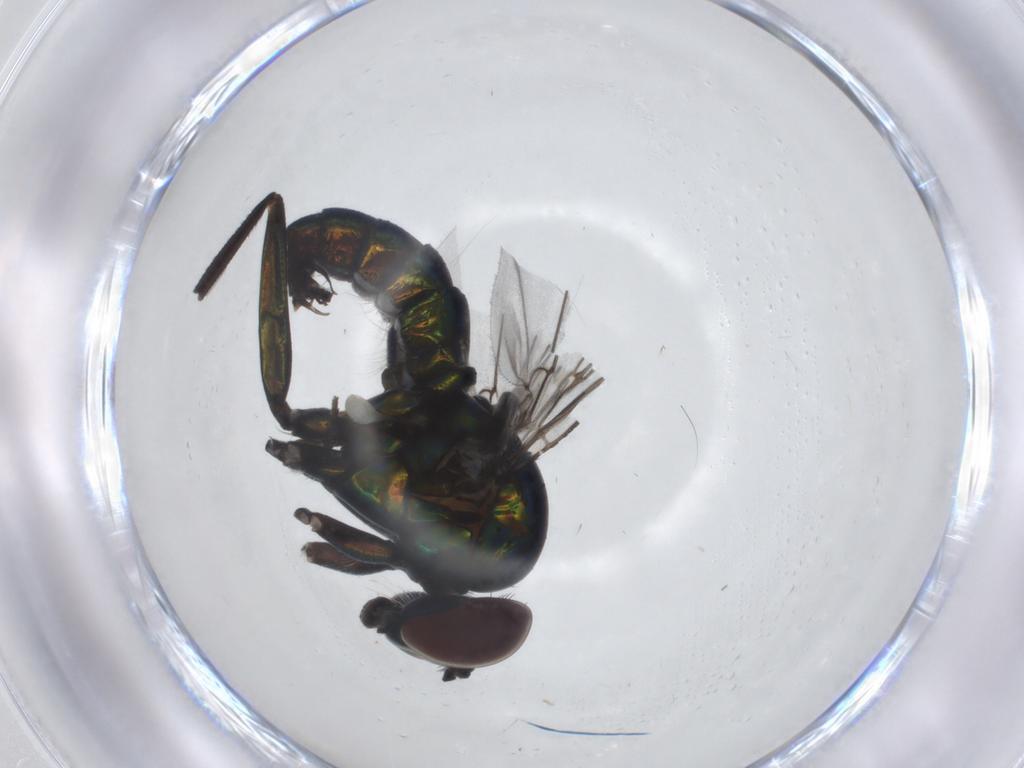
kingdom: Animalia
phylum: Arthropoda
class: Insecta
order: Diptera
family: Dolichopodidae
